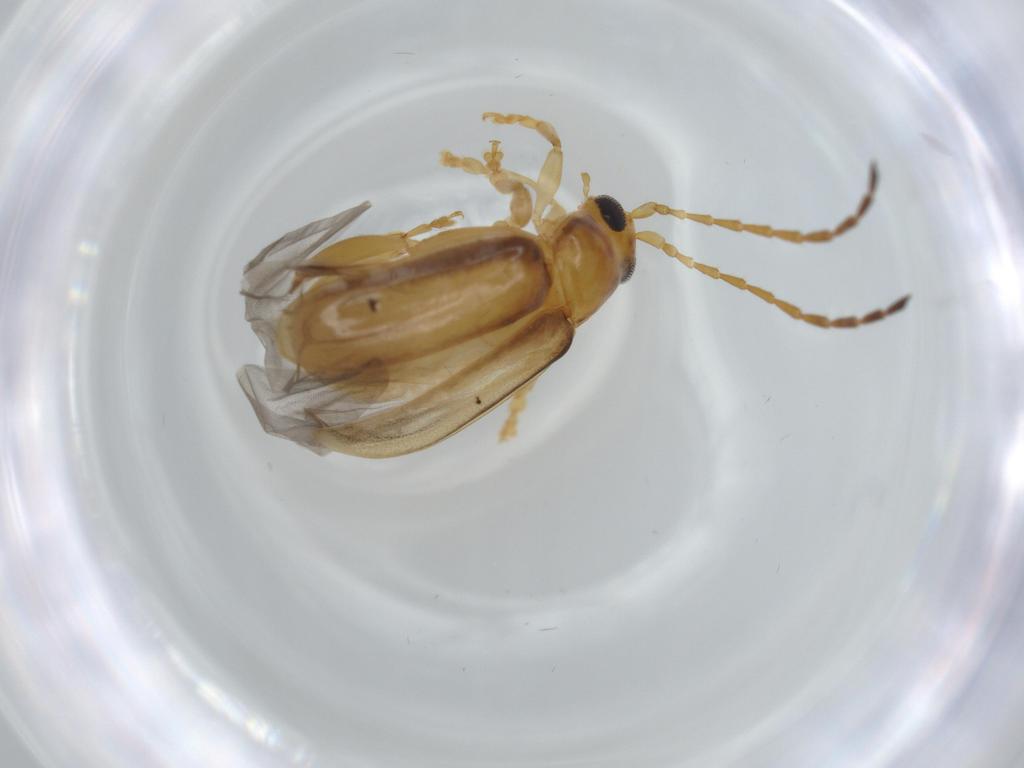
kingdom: Animalia
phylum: Arthropoda
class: Insecta
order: Coleoptera
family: Chrysomelidae
